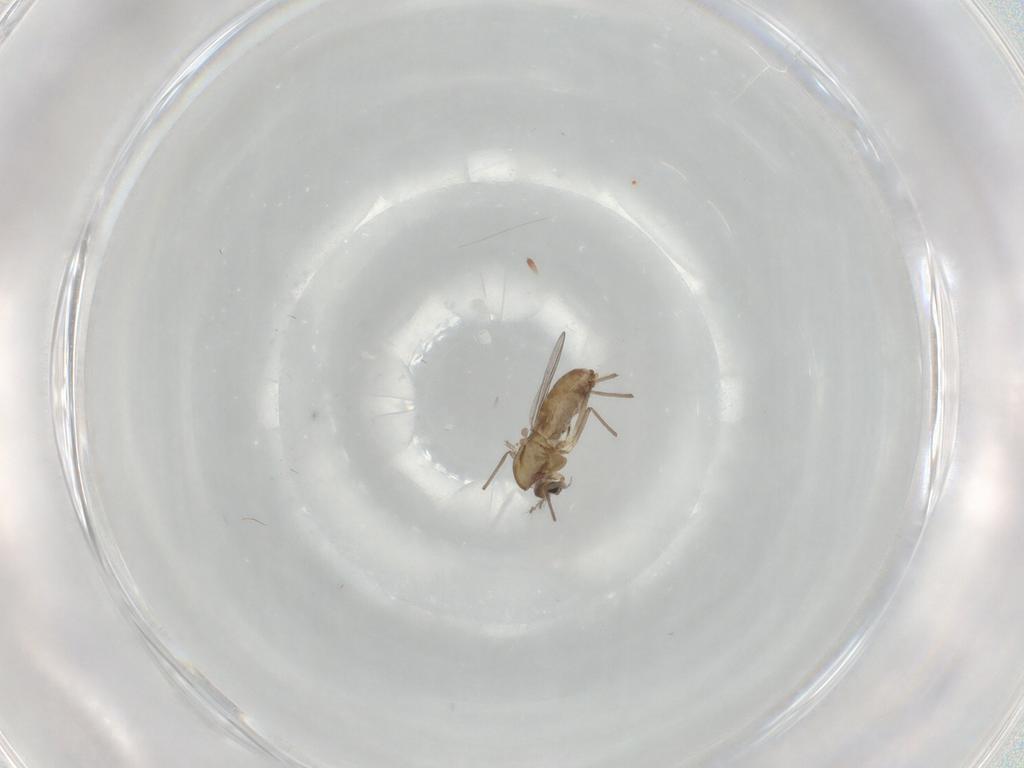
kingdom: Animalia
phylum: Arthropoda
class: Insecta
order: Diptera
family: Chironomidae
